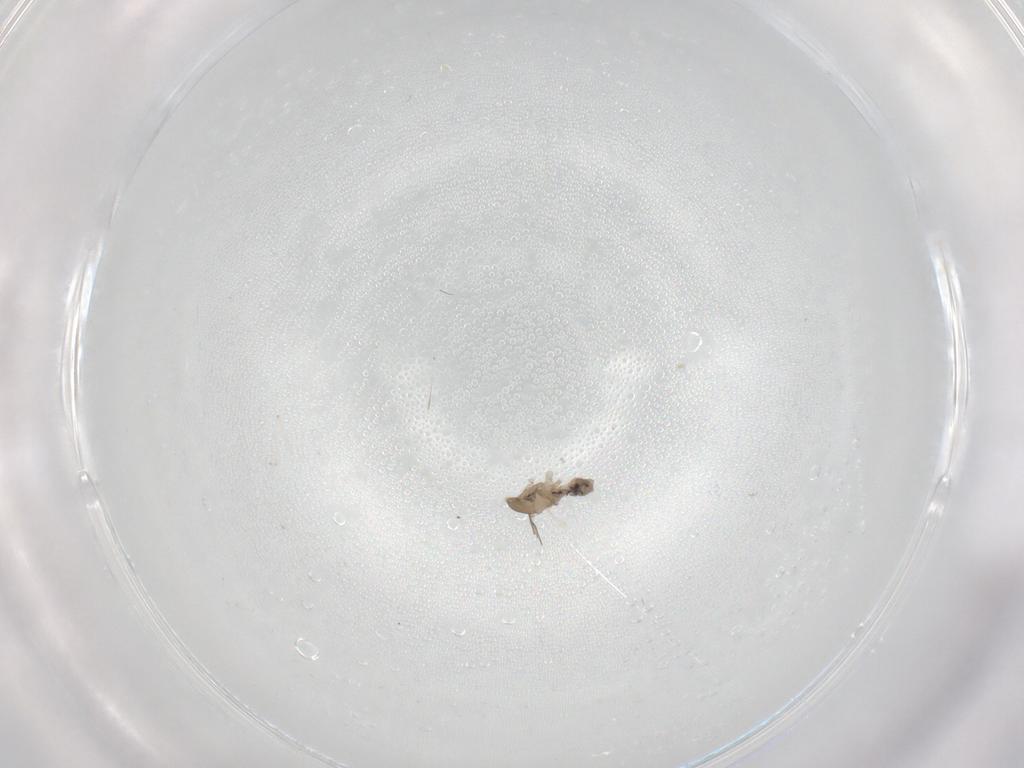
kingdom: Animalia
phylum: Arthropoda
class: Insecta
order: Diptera
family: Cecidomyiidae
